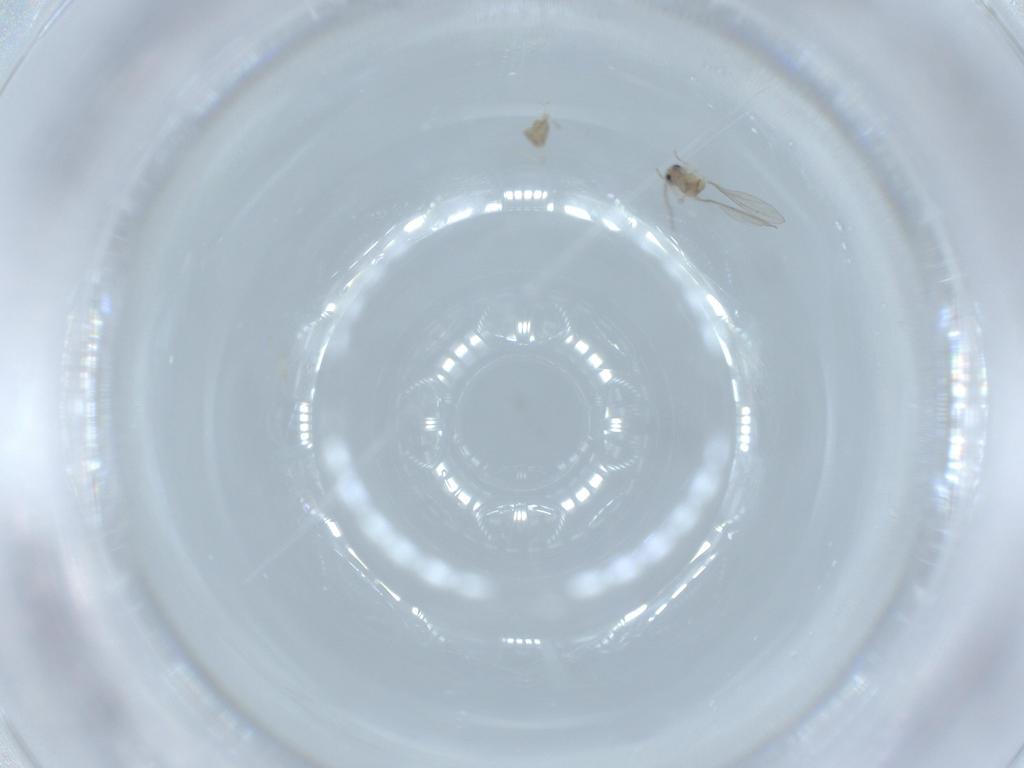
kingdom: Animalia
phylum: Arthropoda
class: Insecta
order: Diptera
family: Cecidomyiidae
